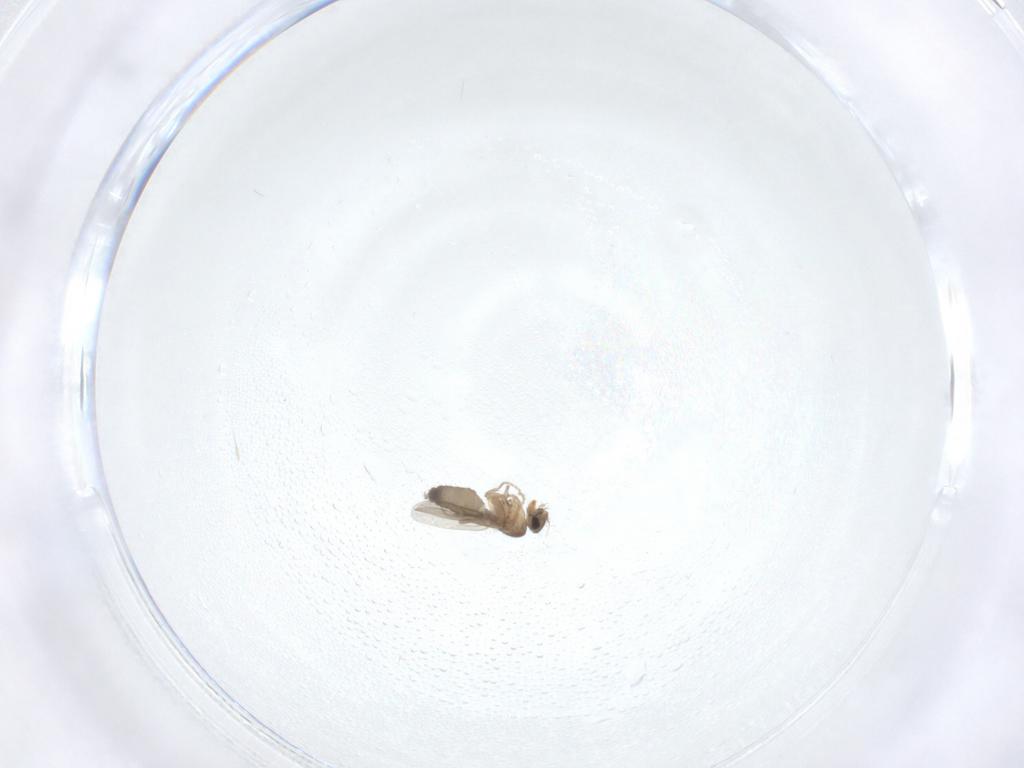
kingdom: Animalia
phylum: Arthropoda
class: Insecta
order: Diptera
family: Phoridae
